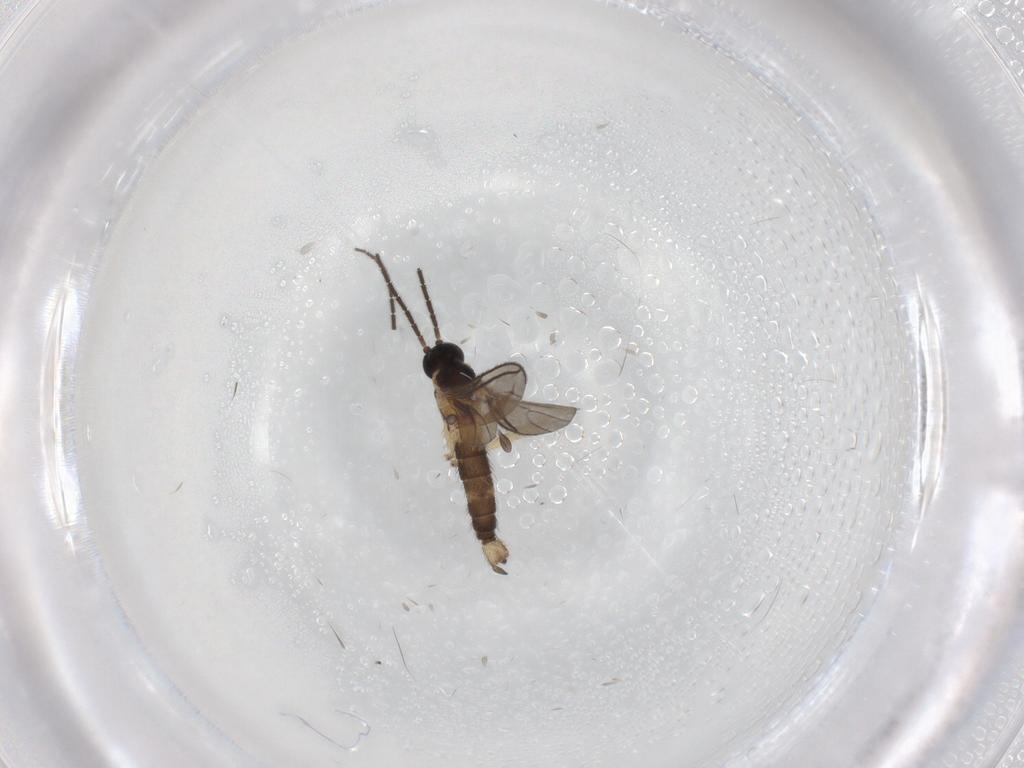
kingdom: Animalia
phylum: Arthropoda
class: Insecta
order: Diptera
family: Sciaridae
